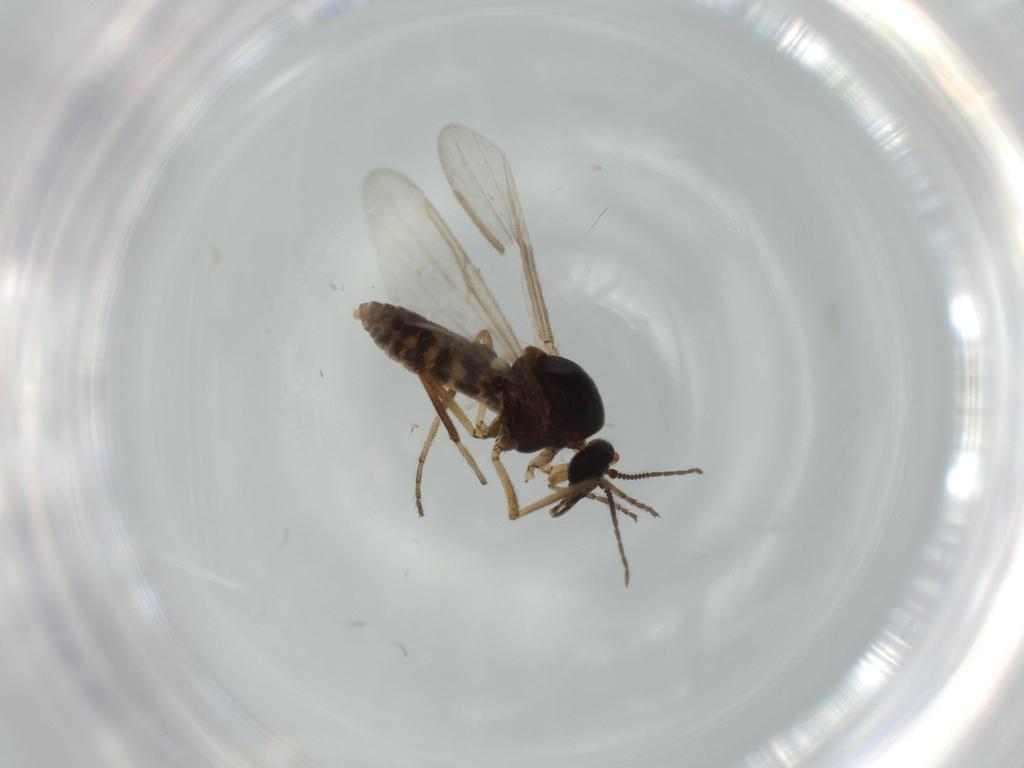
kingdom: Animalia
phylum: Arthropoda
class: Insecta
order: Diptera
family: Ceratopogonidae
